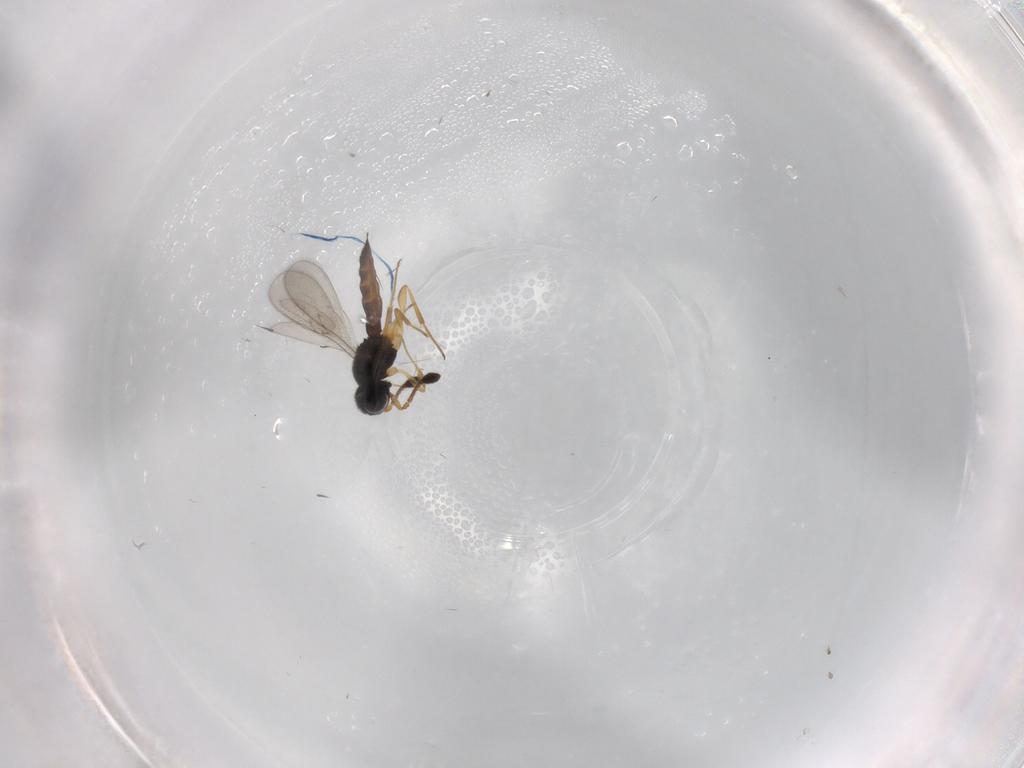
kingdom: Animalia
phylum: Arthropoda
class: Insecta
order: Hymenoptera
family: Scelionidae
